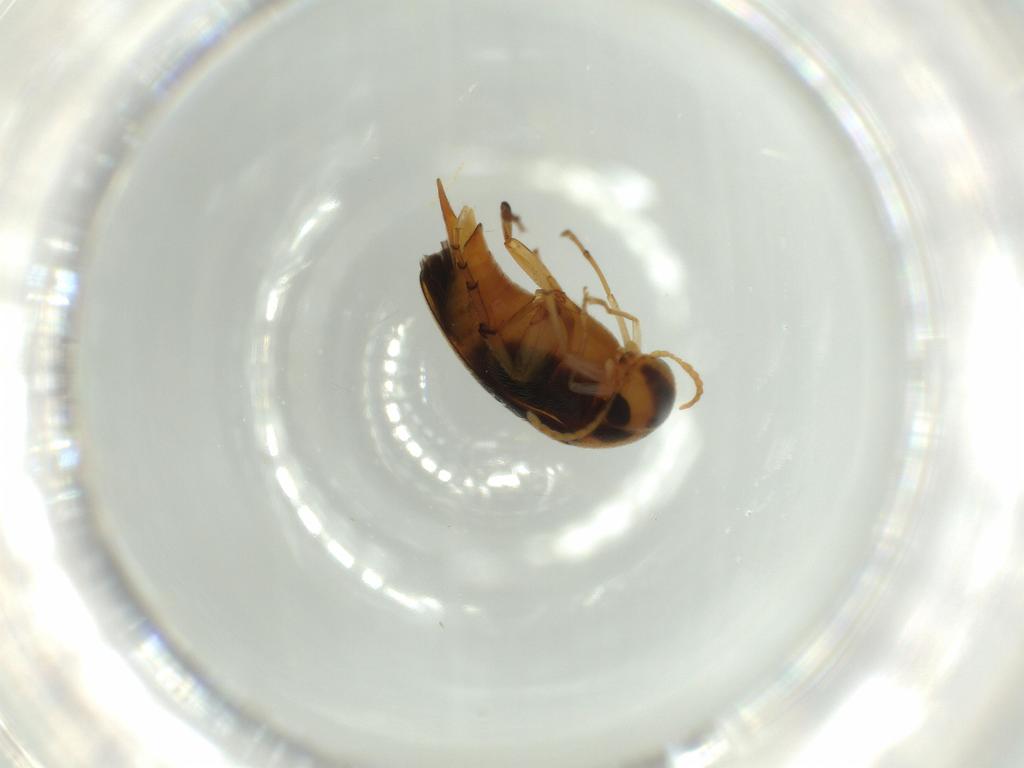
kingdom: Animalia
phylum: Arthropoda
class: Insecta
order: Coleoptera
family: Mordellidae
